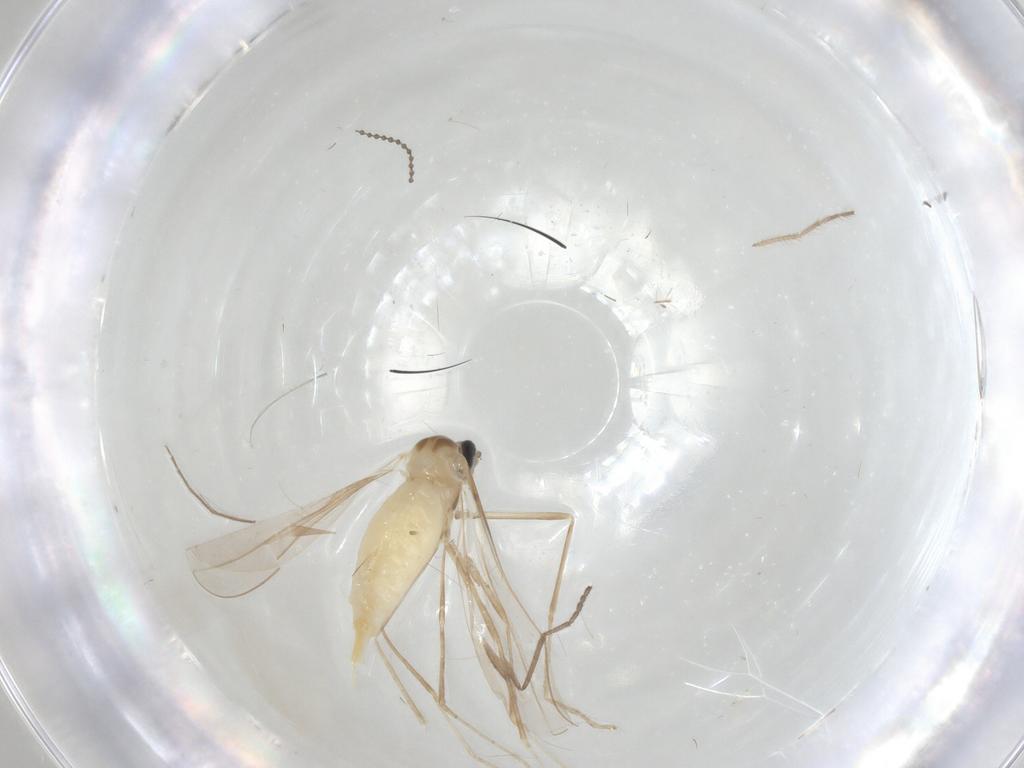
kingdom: Animalia
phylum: Arthropoda
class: Insecta
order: Diptera
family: Cecidomyiidae
